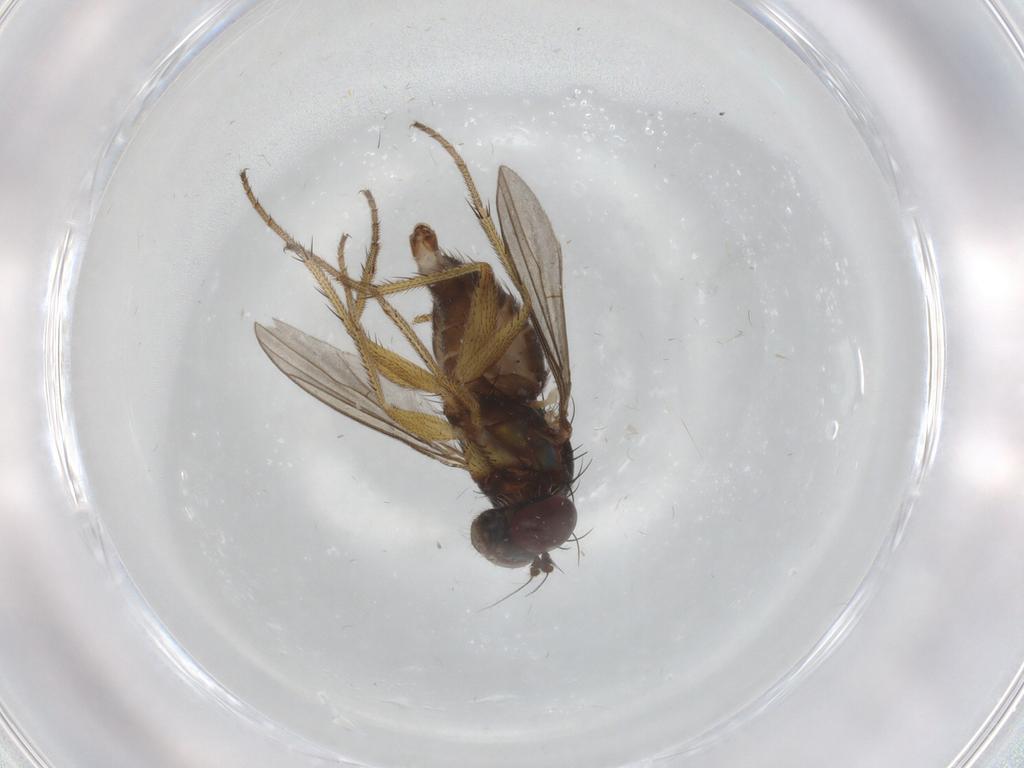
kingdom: Animalia
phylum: Arthropoda
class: Insecta
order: Diptera
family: Dolichopodidae
